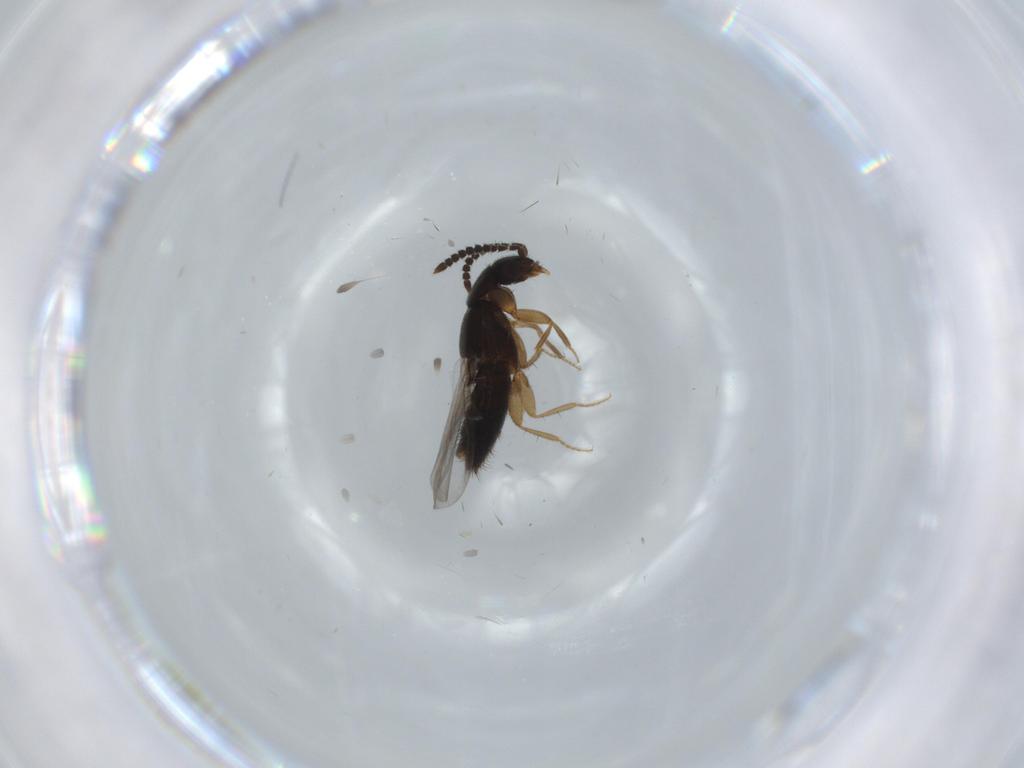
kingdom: Animalia
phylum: Arthropoda
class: Insecta
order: Coleoptera
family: Staphylinidae
